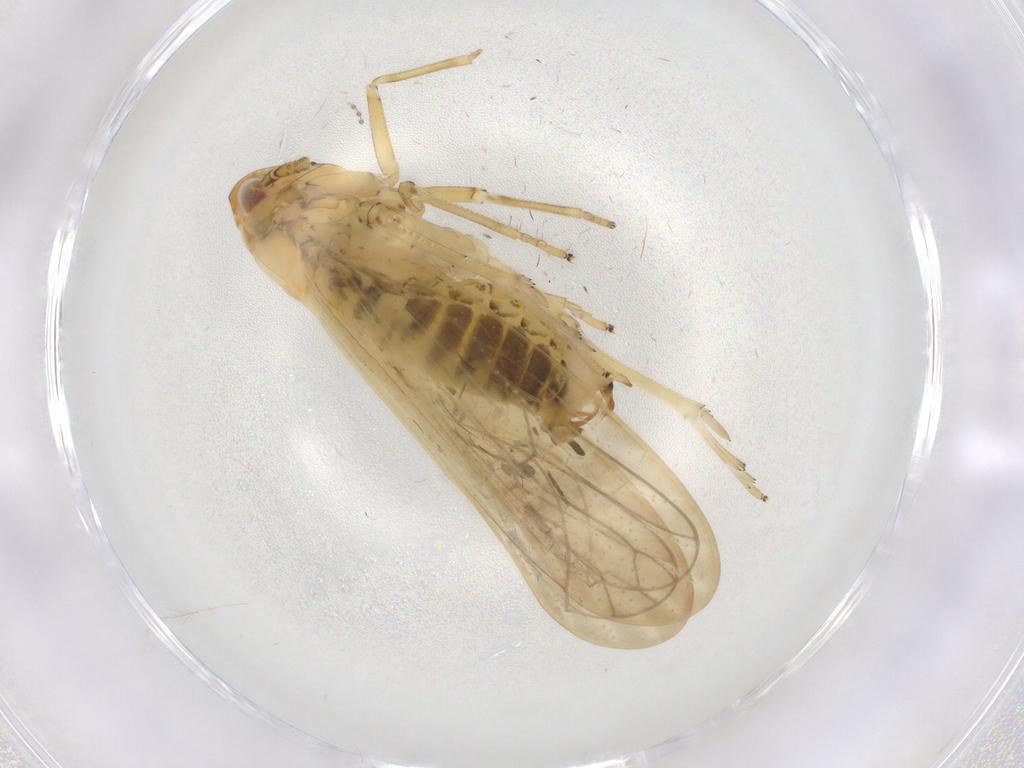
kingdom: Animalia
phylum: Arthropoda
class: Insecta
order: Hemiptera
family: Delphacidae
